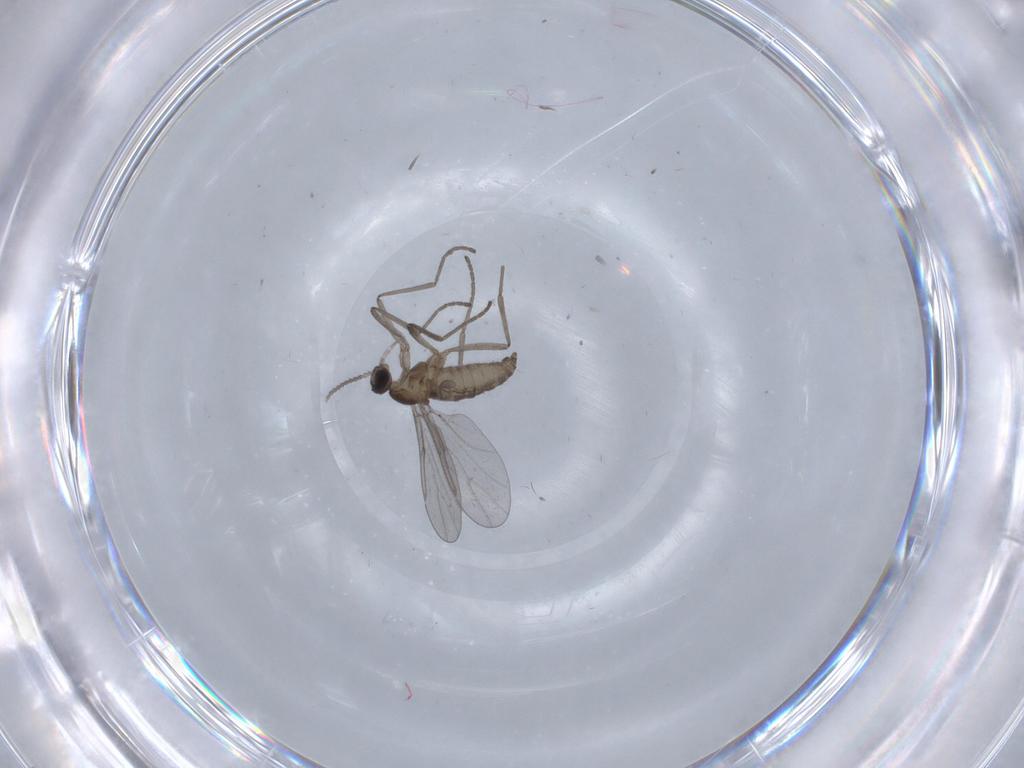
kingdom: Animalia
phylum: Arthropoda
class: Insecta
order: Diptera
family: Cecidomyiidae
